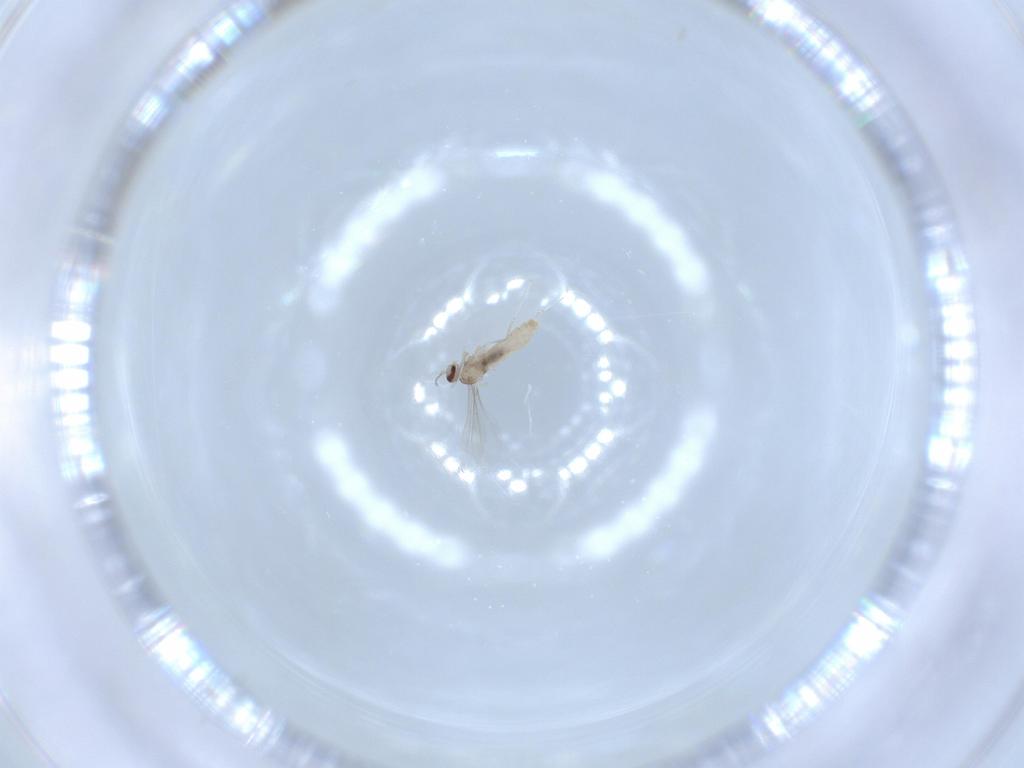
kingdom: Animalia
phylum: Arthropoda
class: Insecta
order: Diptera
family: Cecidomyiidae
